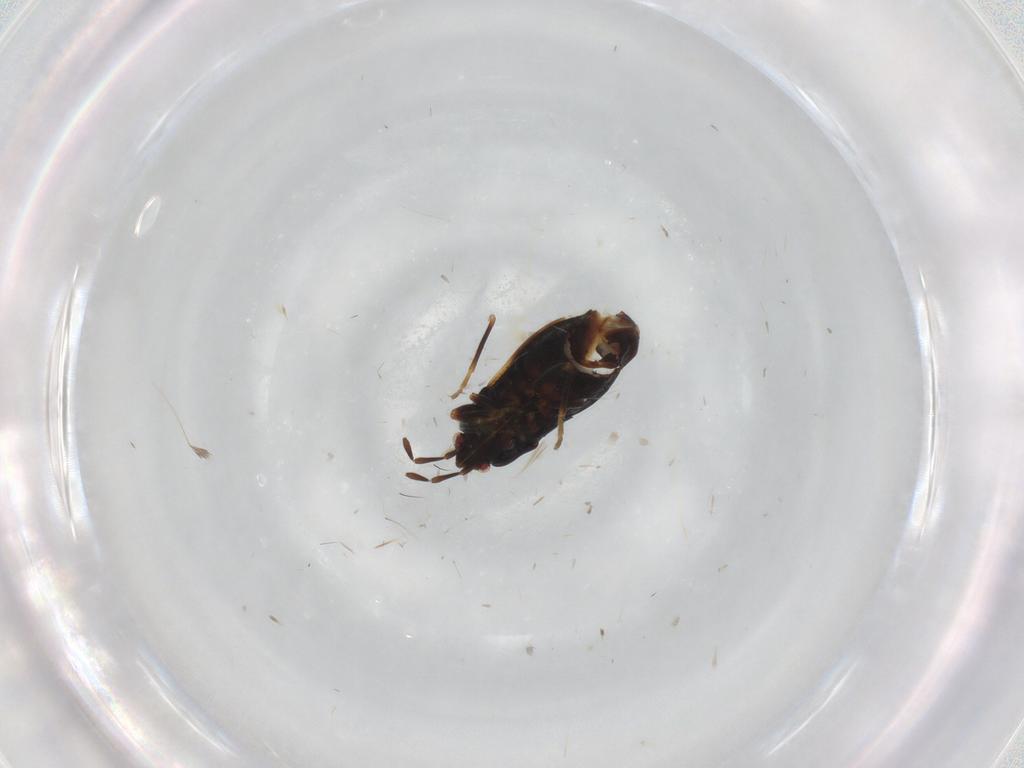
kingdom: Animalia
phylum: Arthropoda
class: Insecta
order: Hemiptera
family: Rhyparochromidae
